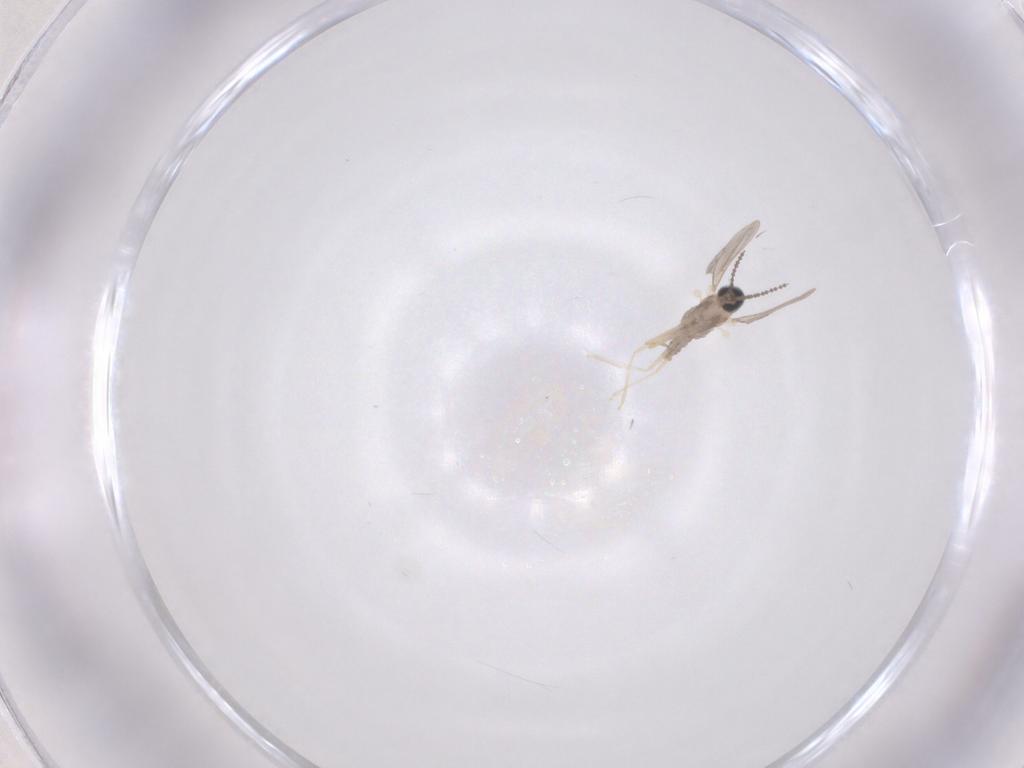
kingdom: Animalia
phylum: Arthropoda
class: Insecta
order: Diptera
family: Cecidomyiidae
